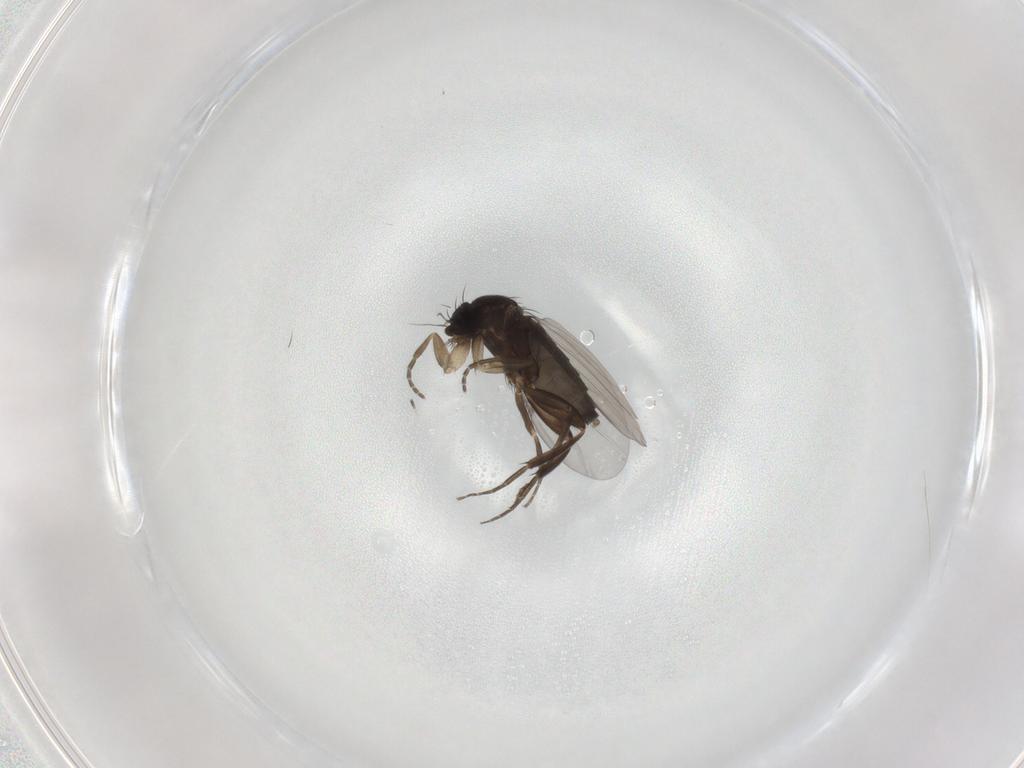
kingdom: Animalia
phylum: Arthropoda
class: Insecta
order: Diptera
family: Phoridae
